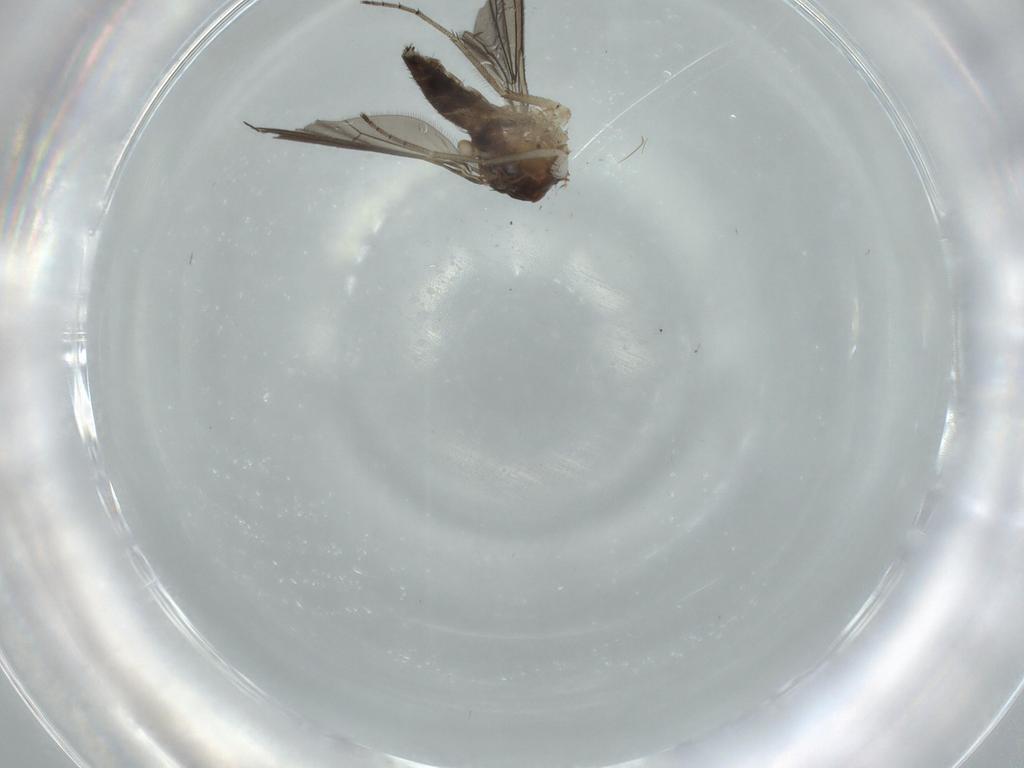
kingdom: Animalia
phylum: Arthropoda
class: Insecta
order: Diptera
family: Dolichopodidae
